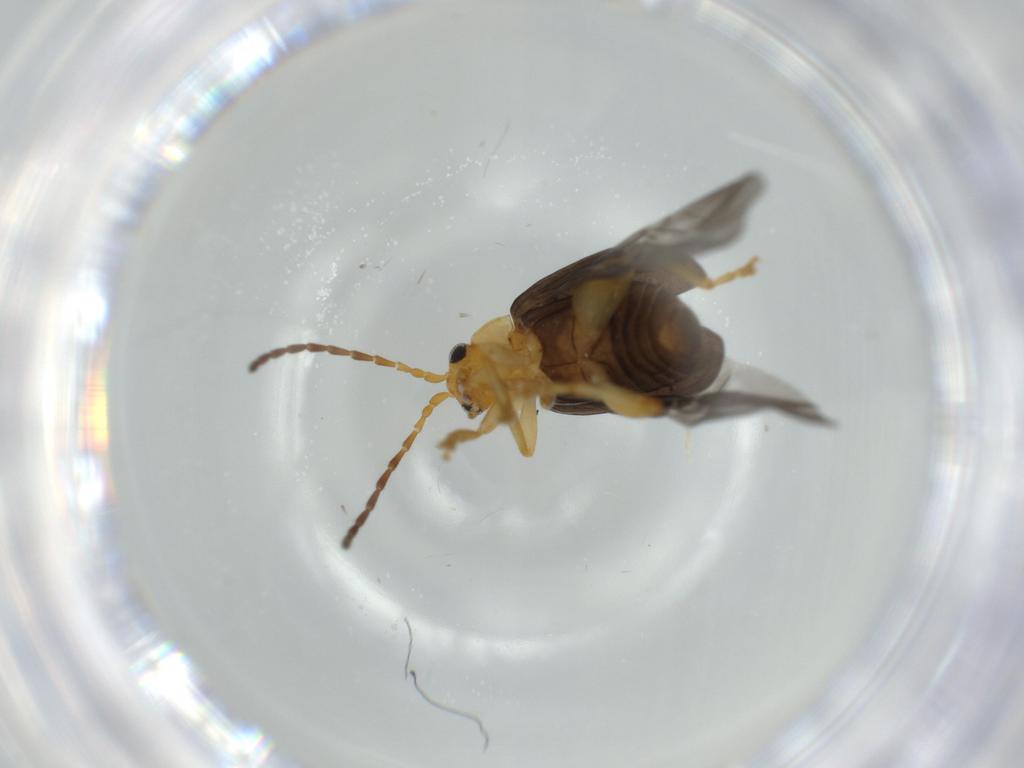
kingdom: Animalia
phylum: Arthropoda
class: Insecta
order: Coleoptera
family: Chrysomelidae
